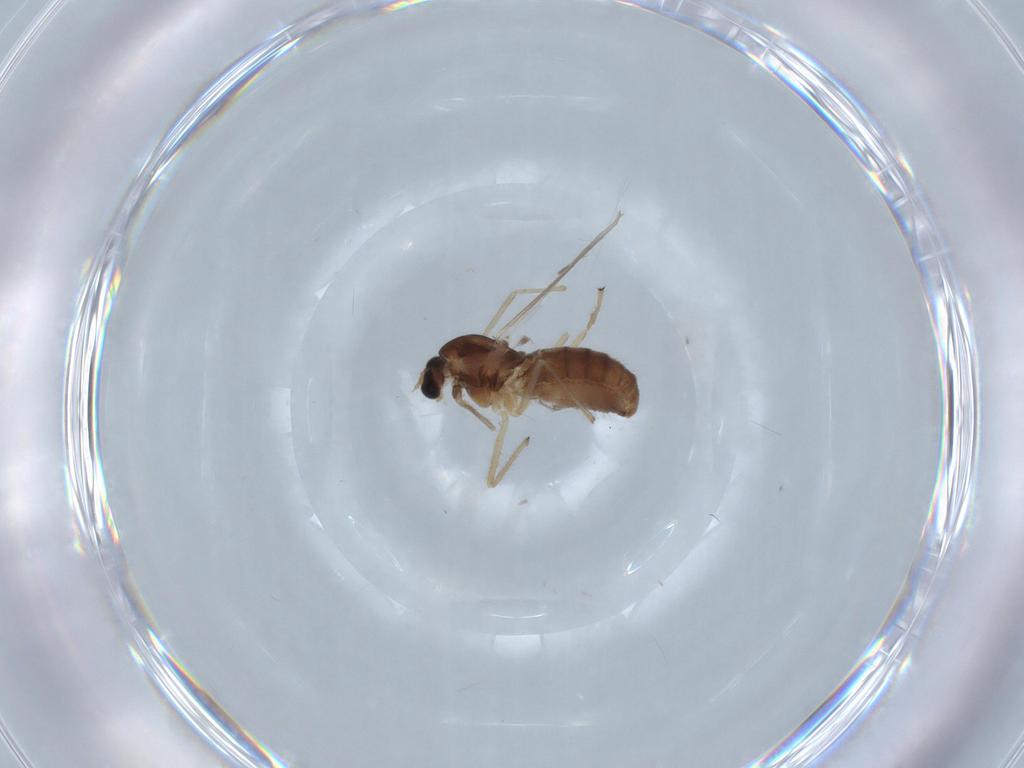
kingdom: Animalia
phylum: Arthropoda
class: Insecta
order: Diptera
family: Chironomidae
